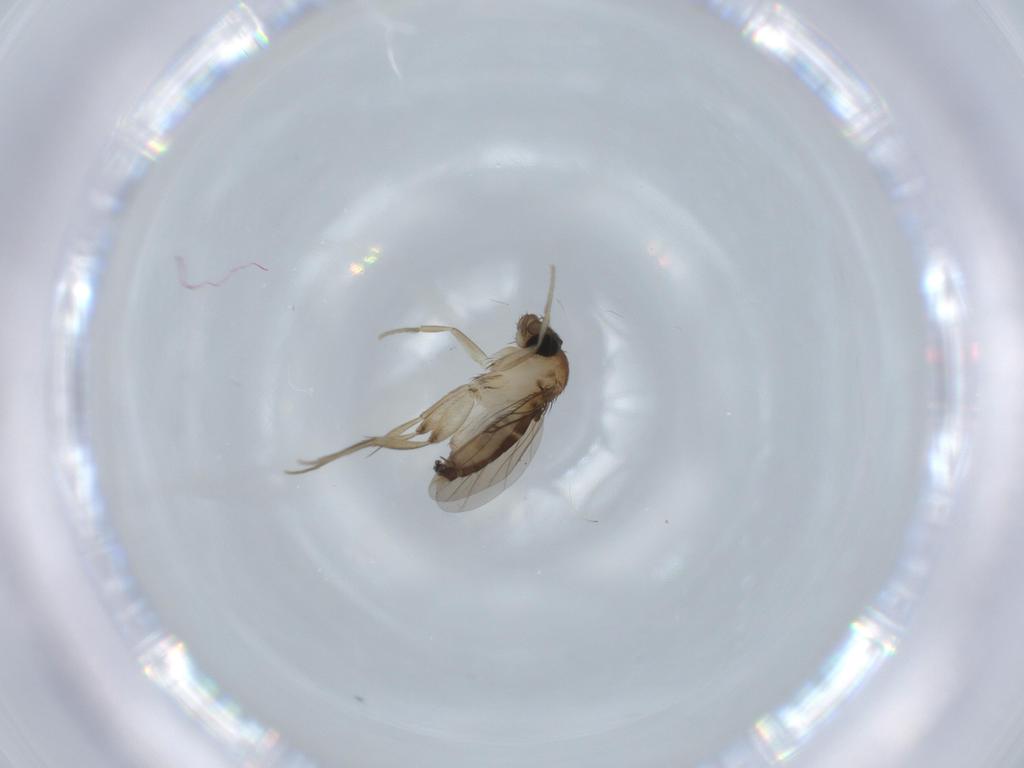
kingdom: Animalia
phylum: Arthropoda
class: Insecta
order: Diptera
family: Phoridae
